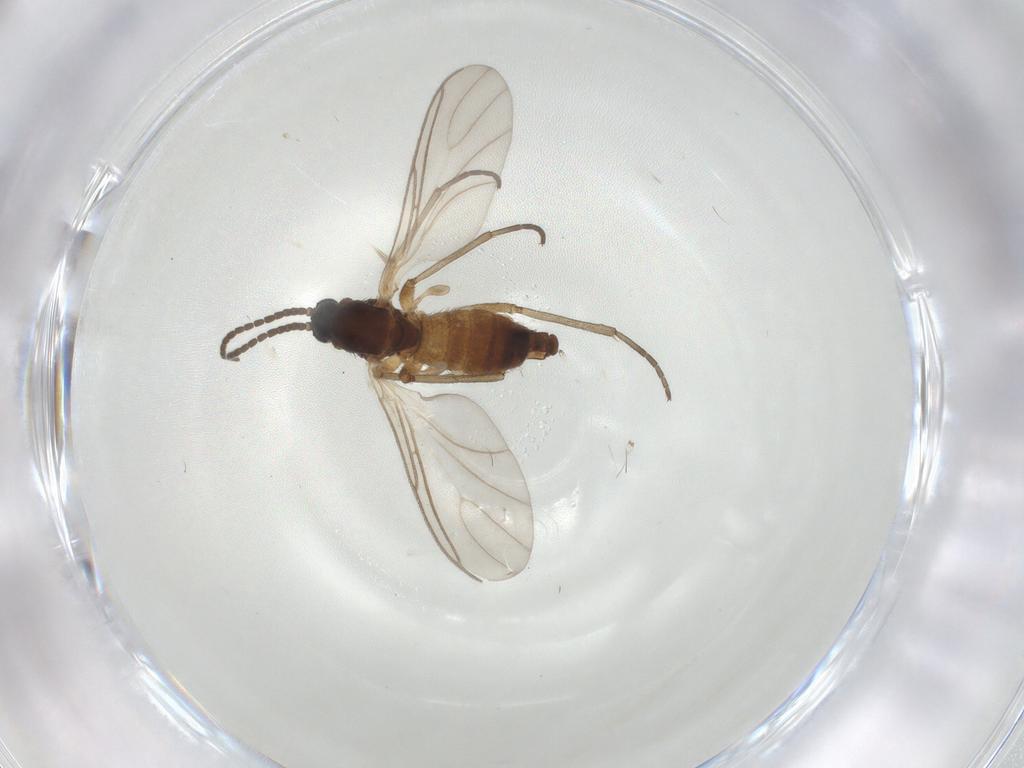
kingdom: Animalia
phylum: Arthropoda
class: Insecta
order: Diptera
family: Sciaridae
